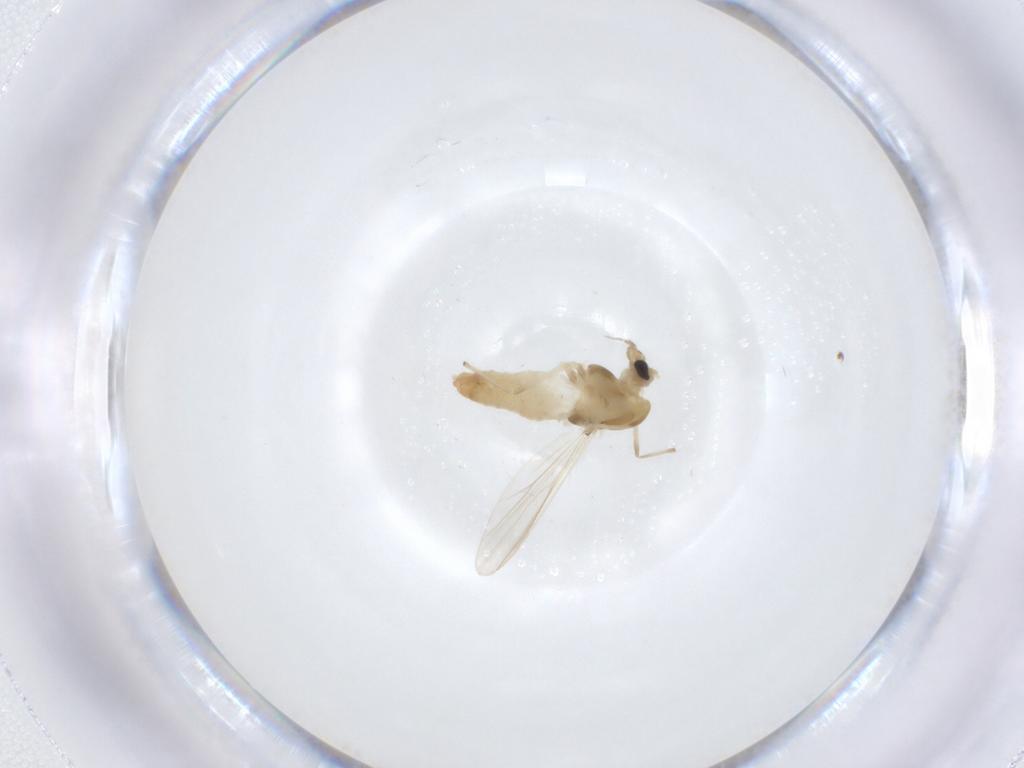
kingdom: Animalia
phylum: Arthropoda
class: Insecta
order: Diptera
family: Chironomidae
